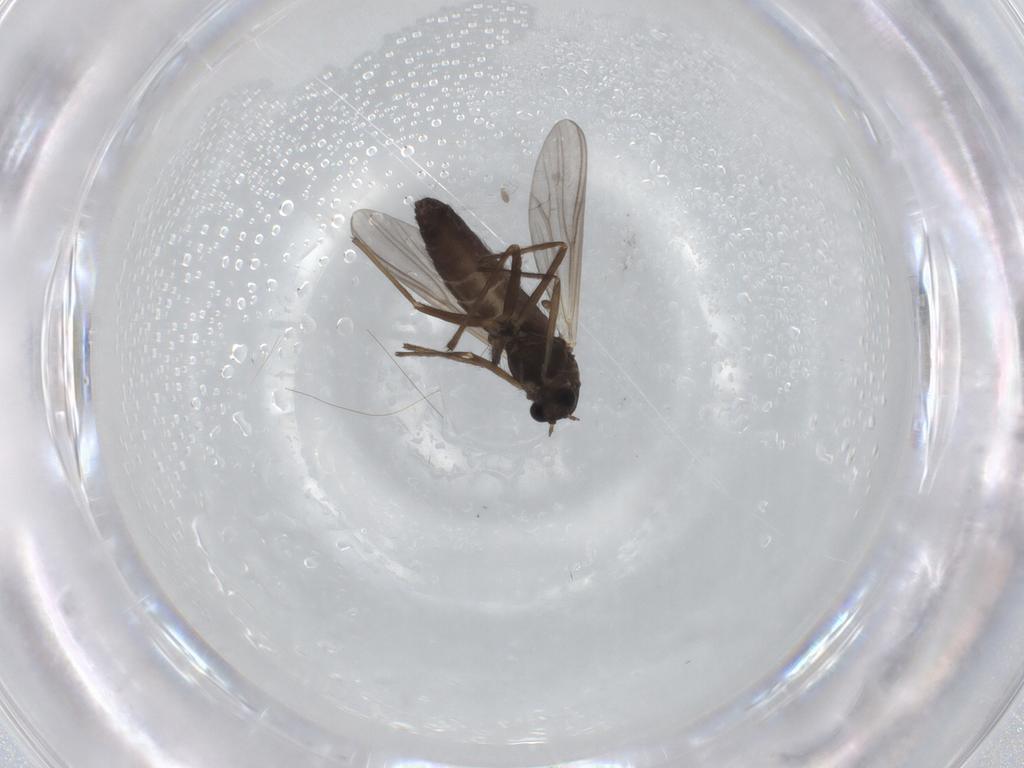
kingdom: Animalia
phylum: Arthropoda
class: Insecta
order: Diptera
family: Chironomidae
